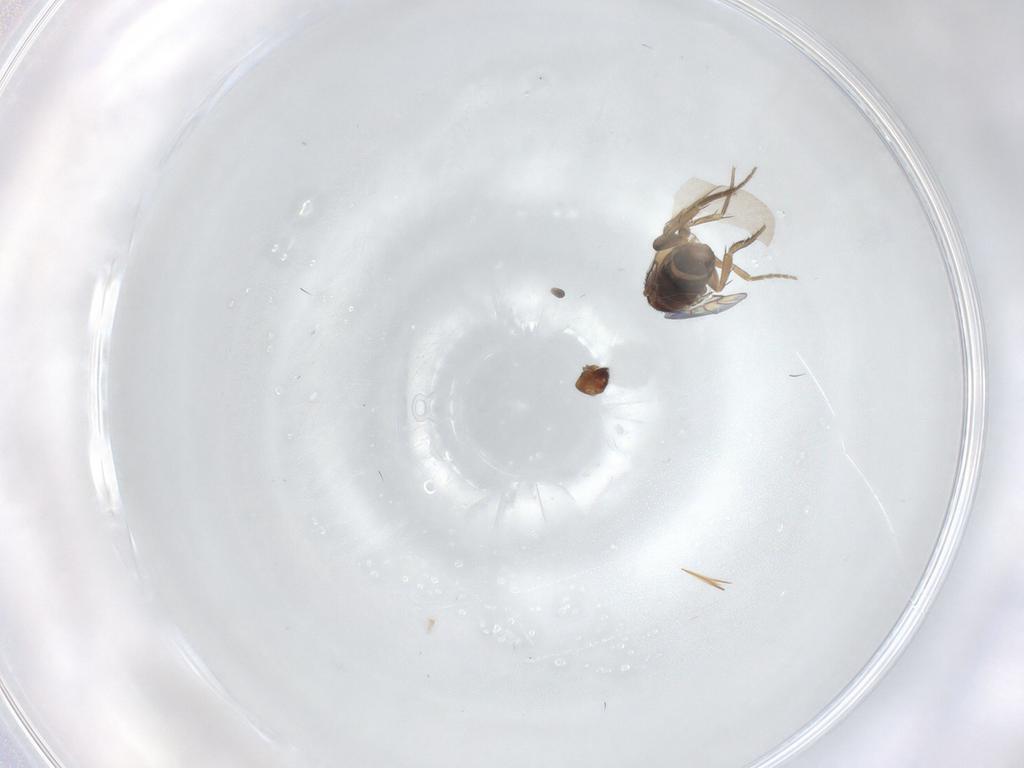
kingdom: Animalia
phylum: Arthropoda
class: Insecta
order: Diptera
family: Phoridae
